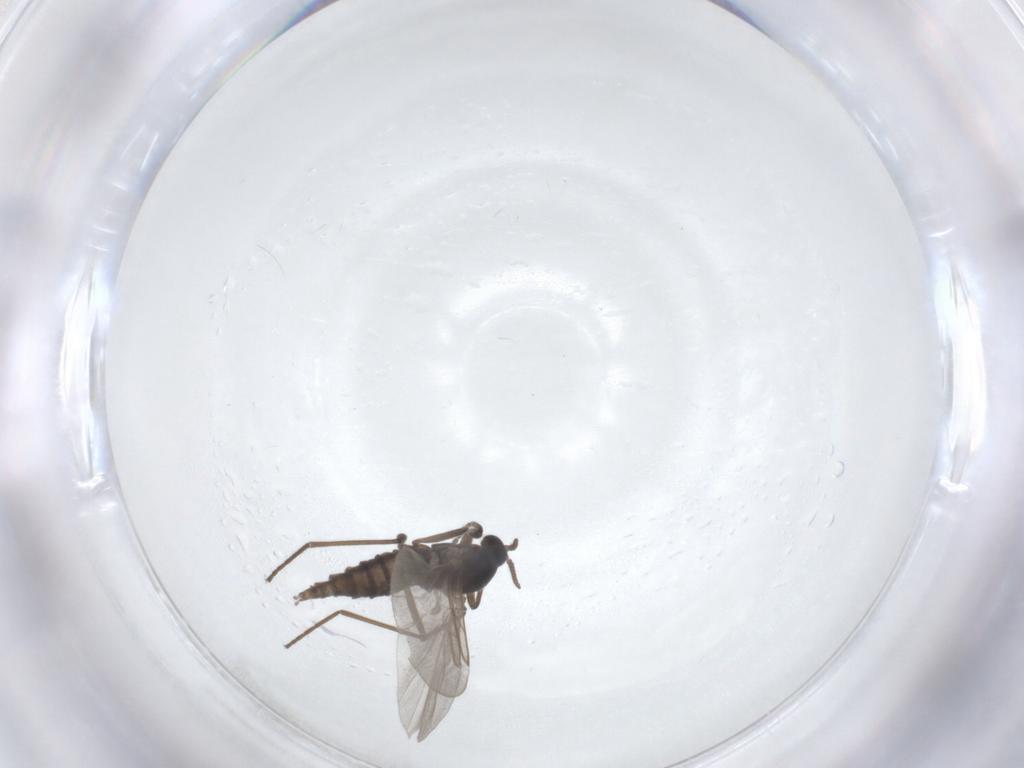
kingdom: Animalia
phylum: Arthropoda
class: Insecta
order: Diptera
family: Cecidomyiidae
